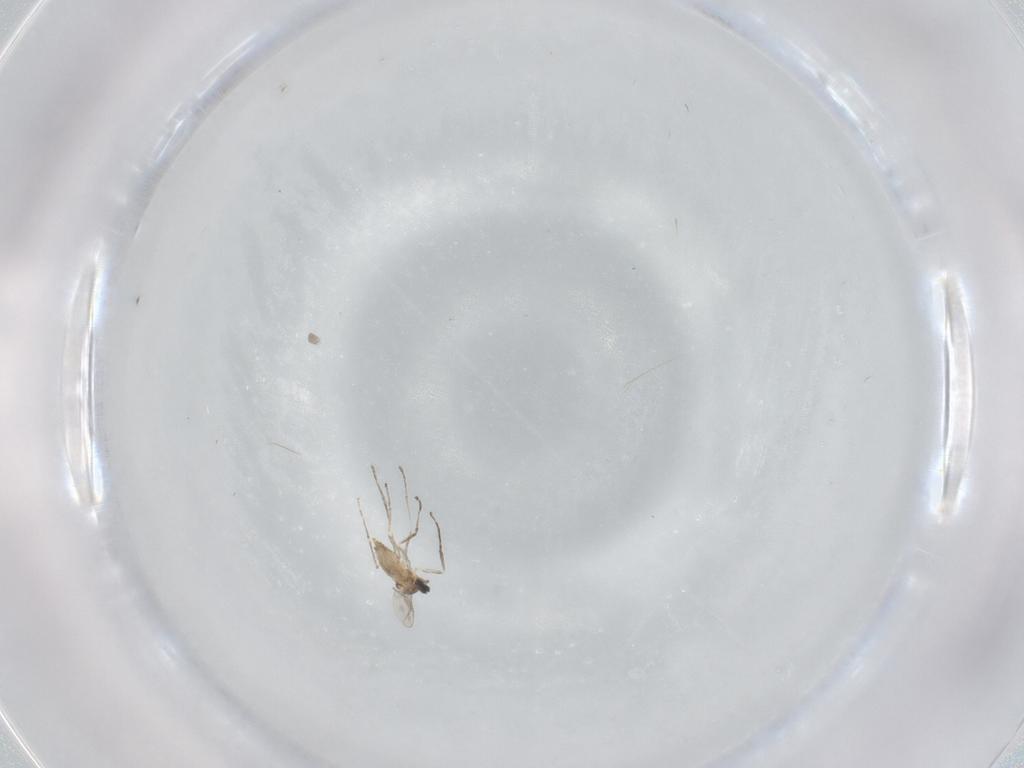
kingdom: Animalia
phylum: Arthropoda
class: Insecta
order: Diptera
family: Cecidomyiidae
